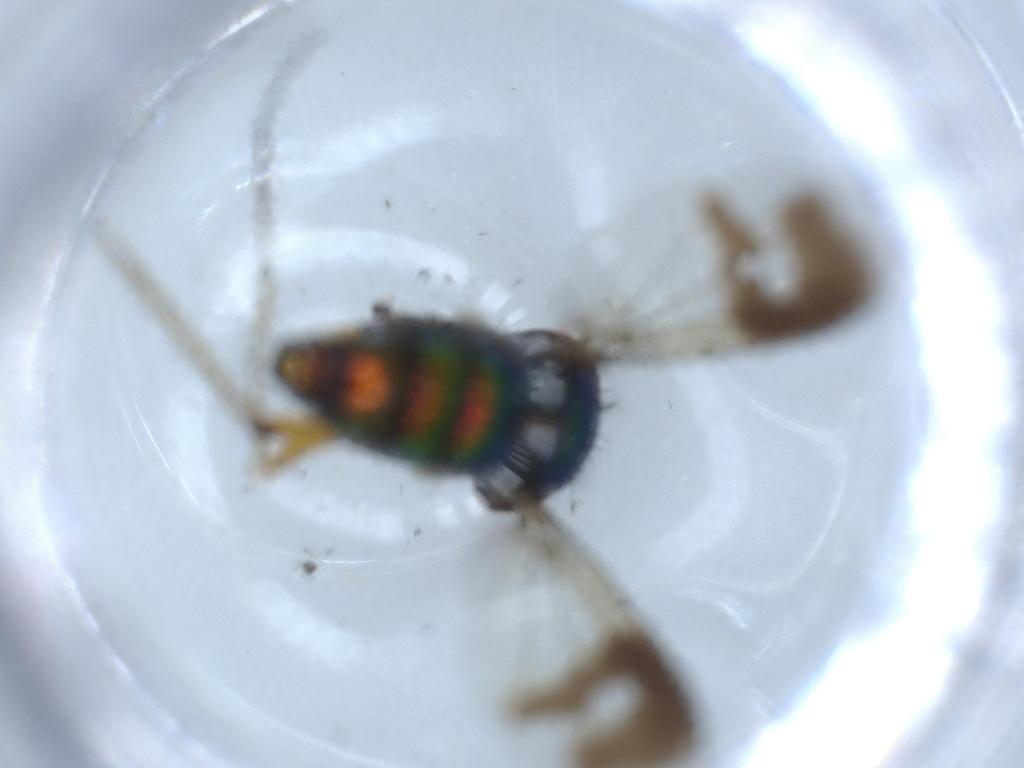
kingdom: Animalia
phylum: Arthropoda
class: Insecta
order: Diptera
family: Dolichopodidae
